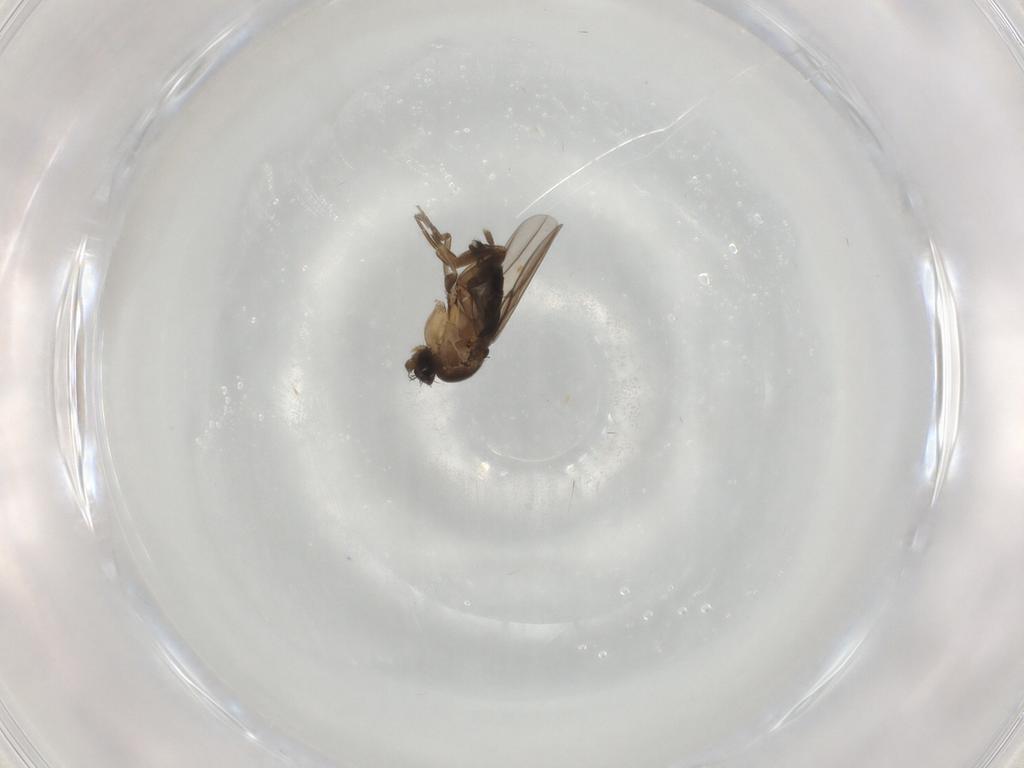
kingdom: Animalia
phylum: Arthropoda
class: Insecta
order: Diptera
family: Phoridae
